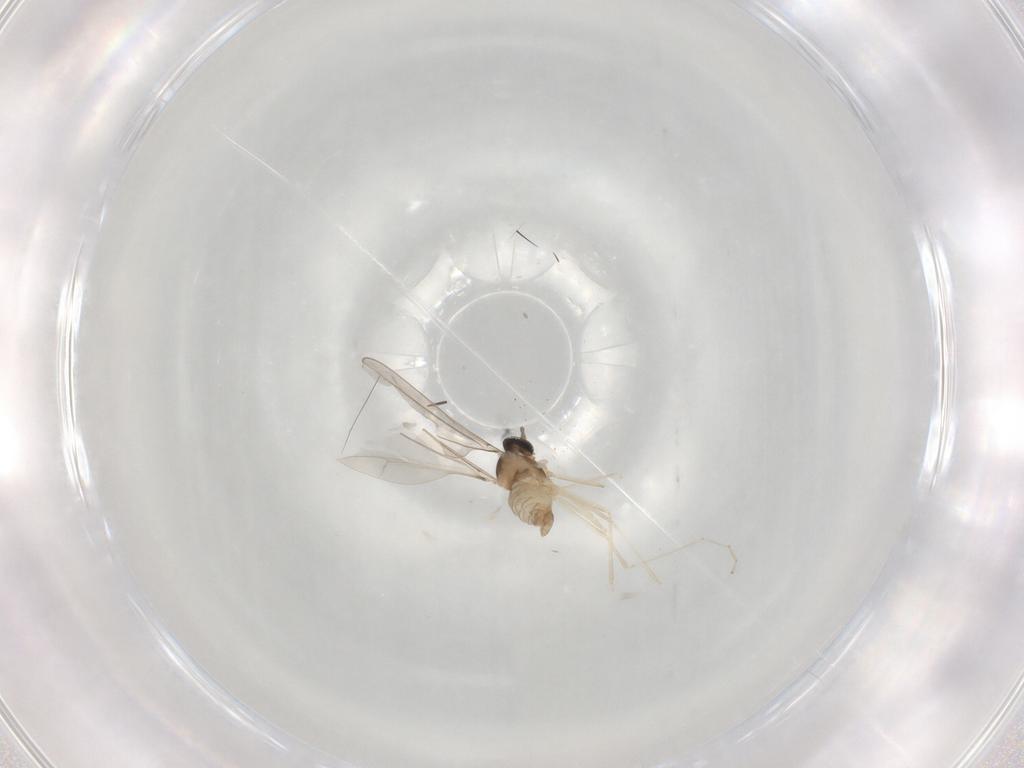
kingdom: Animalia
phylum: Arthropoda
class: Insecta
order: Diptera
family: Cecidomyiidae
